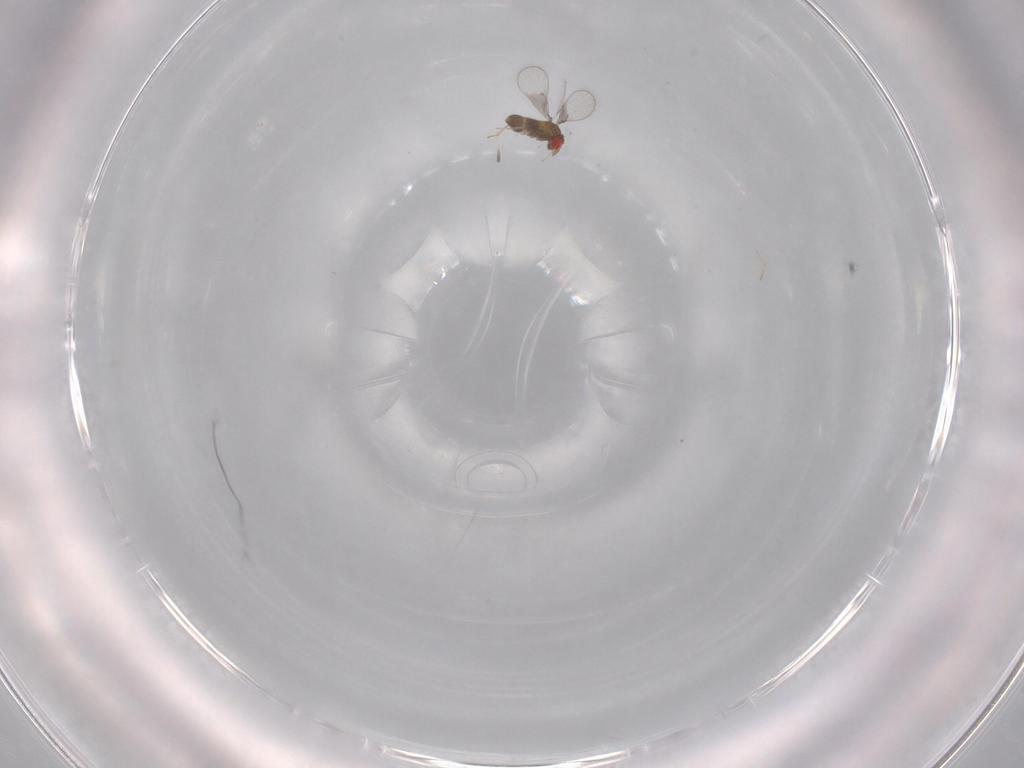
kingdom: Animalia
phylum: Arthropoda
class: Insecta
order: Hymenoptera
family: Trichogrammatidae
